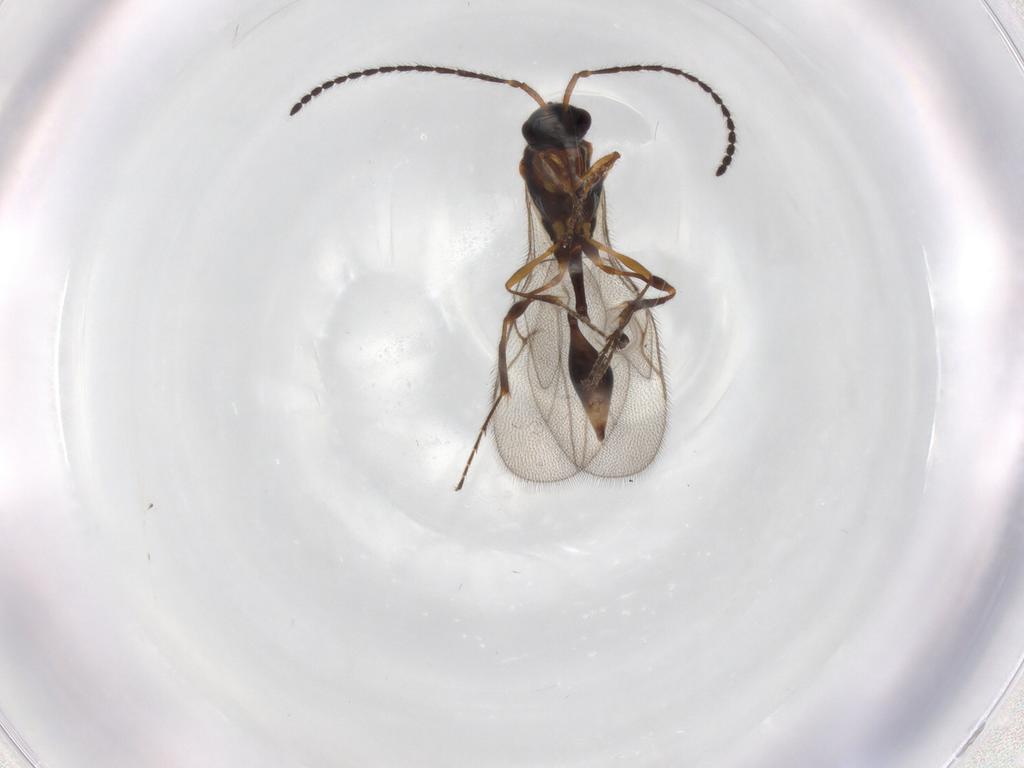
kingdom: Animalia
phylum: Arthropoda
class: Insecta
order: Hymenoptera
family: Diapriidae
